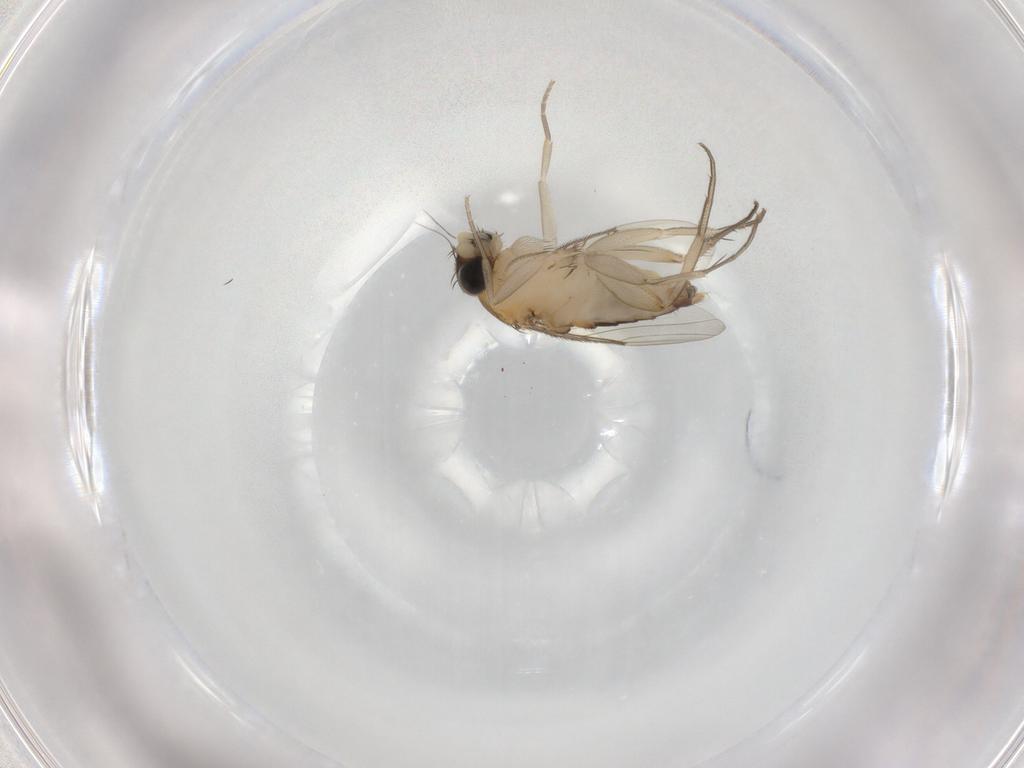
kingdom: Animalia
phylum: Arthropoda
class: Insecta
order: Diptera
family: Phoridae
